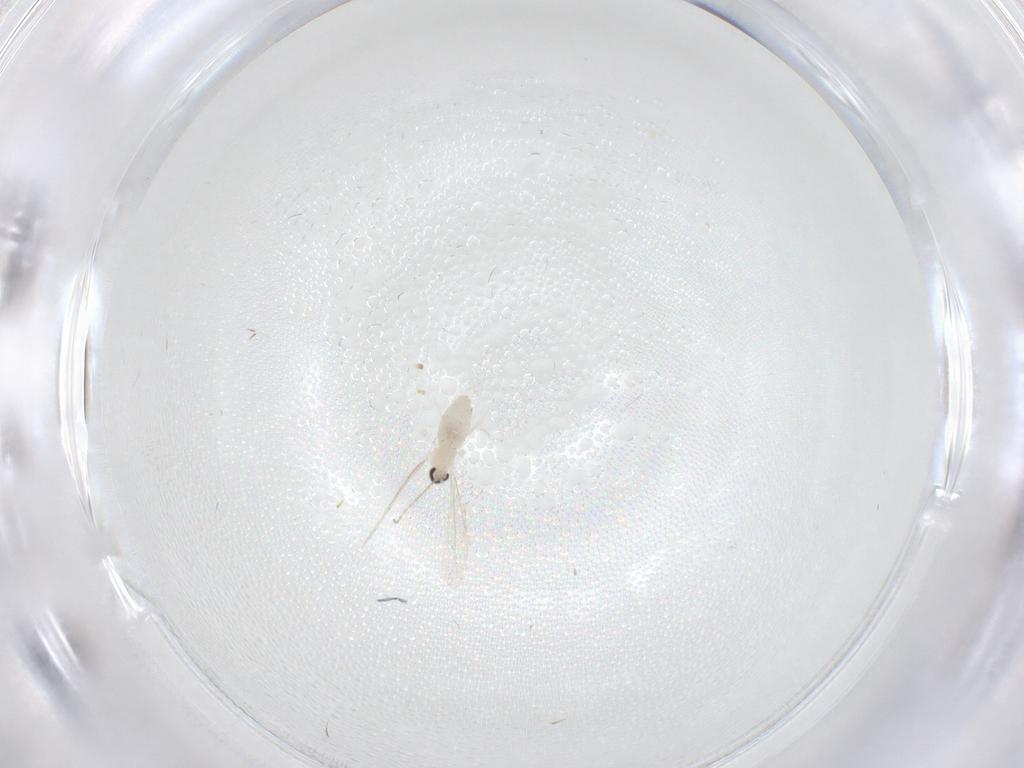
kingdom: Animalia
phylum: Arthropoda
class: Insecta
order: Diptera
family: Cecidomyiidae
